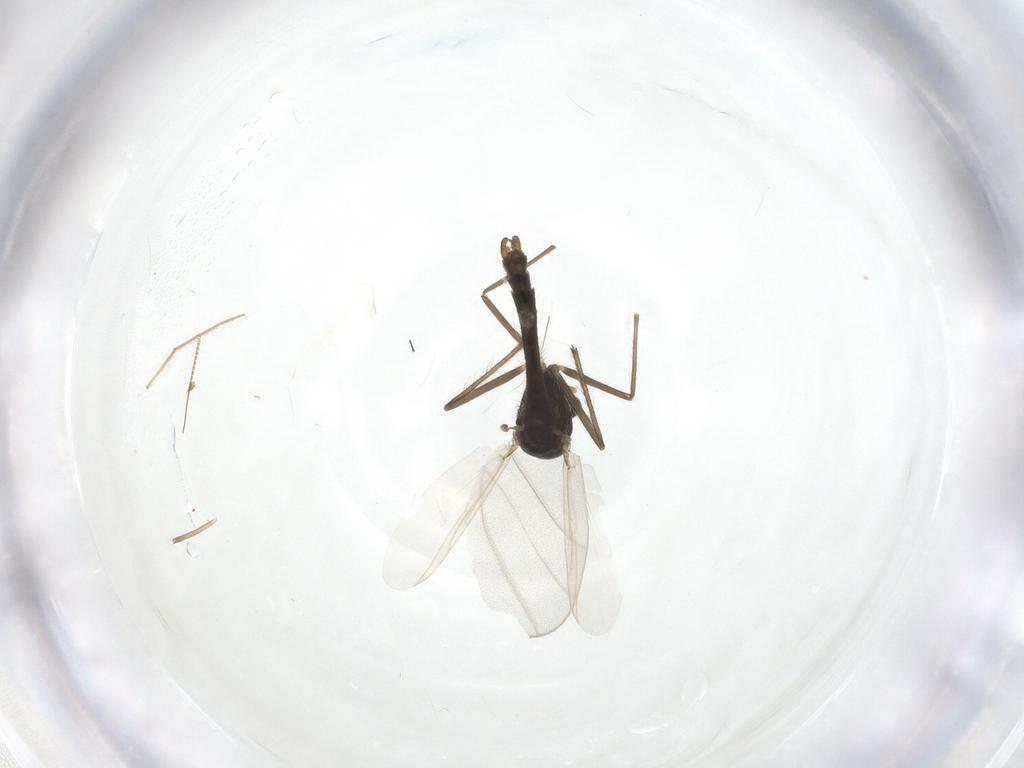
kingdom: Animalia
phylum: Arthropoda
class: Insecta
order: Diptera
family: Chironomidae
